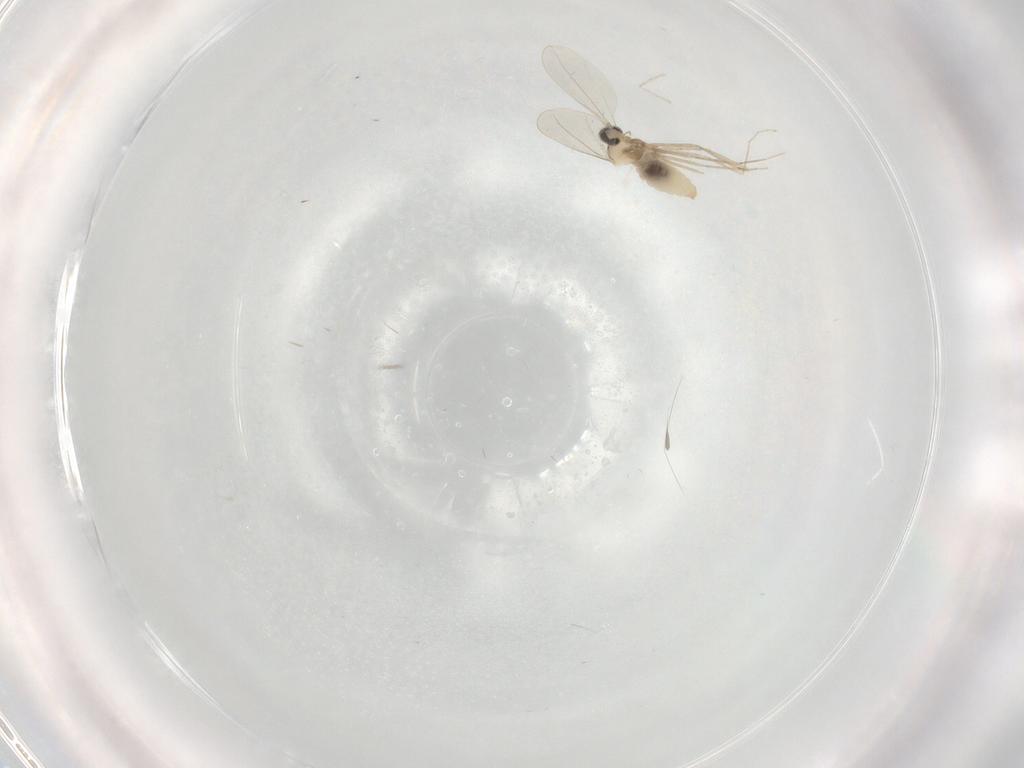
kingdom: Animalia
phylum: Arthropoda
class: Insecta
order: Diptera
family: Cecidomyiidae
